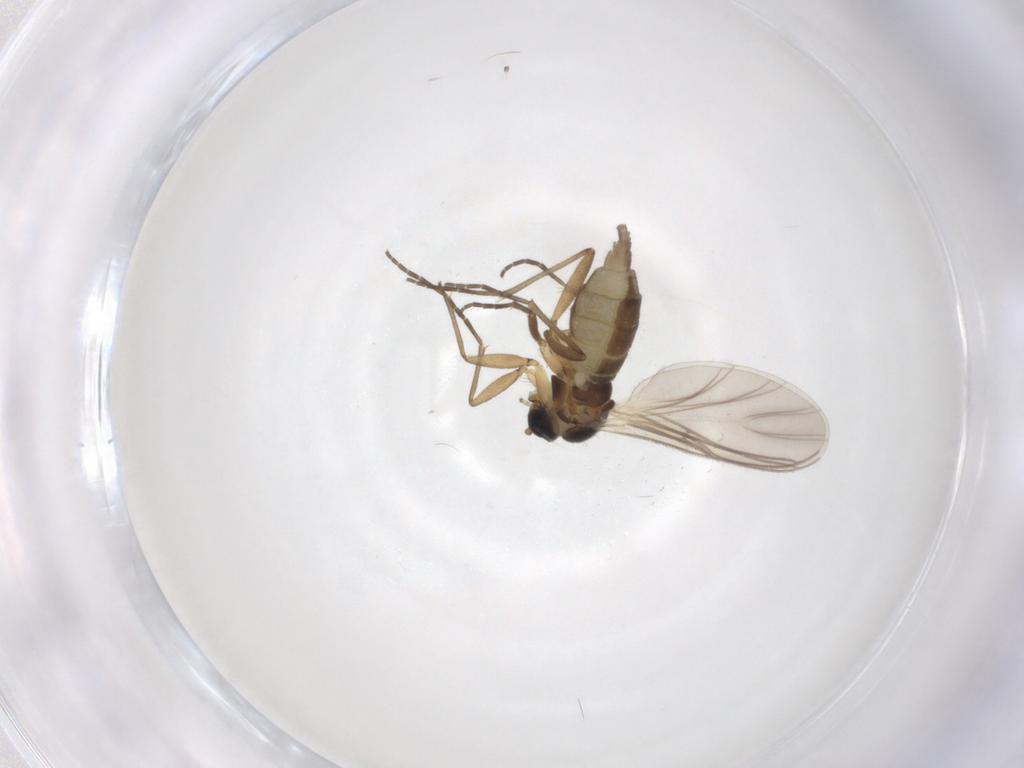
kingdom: Animalia
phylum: Arthropoda
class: Insecta
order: Diptera
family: Sciaridae
